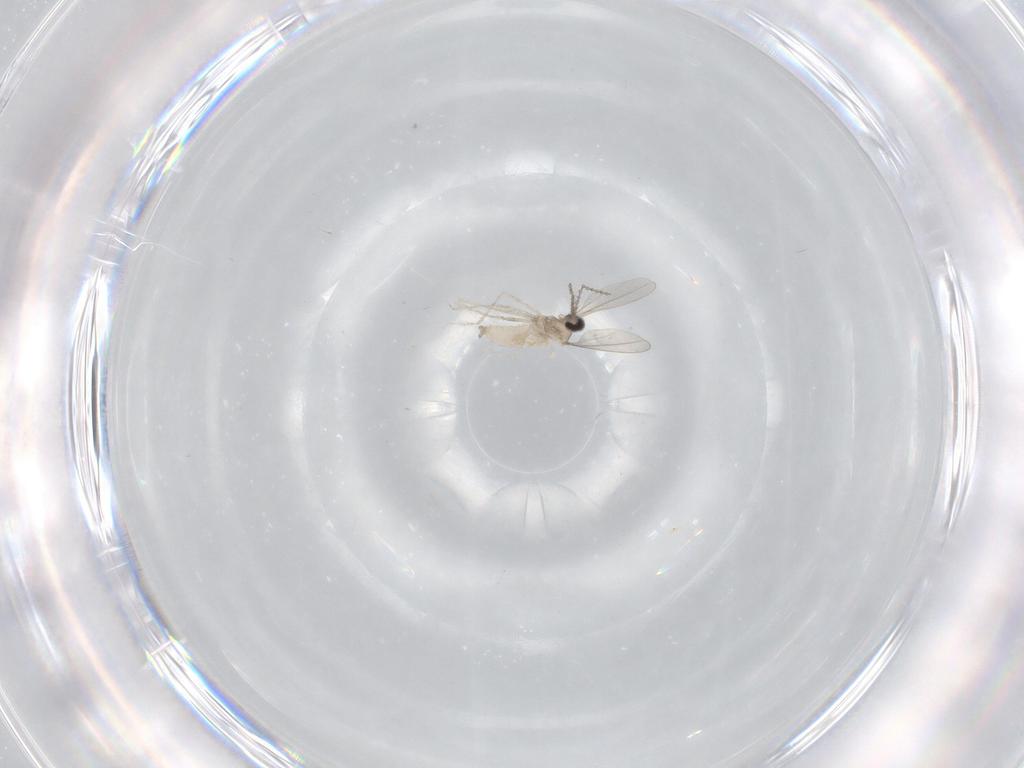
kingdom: Animalia
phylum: Arthropoda
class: Insecta
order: Diptera
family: Cecidomyiidae
